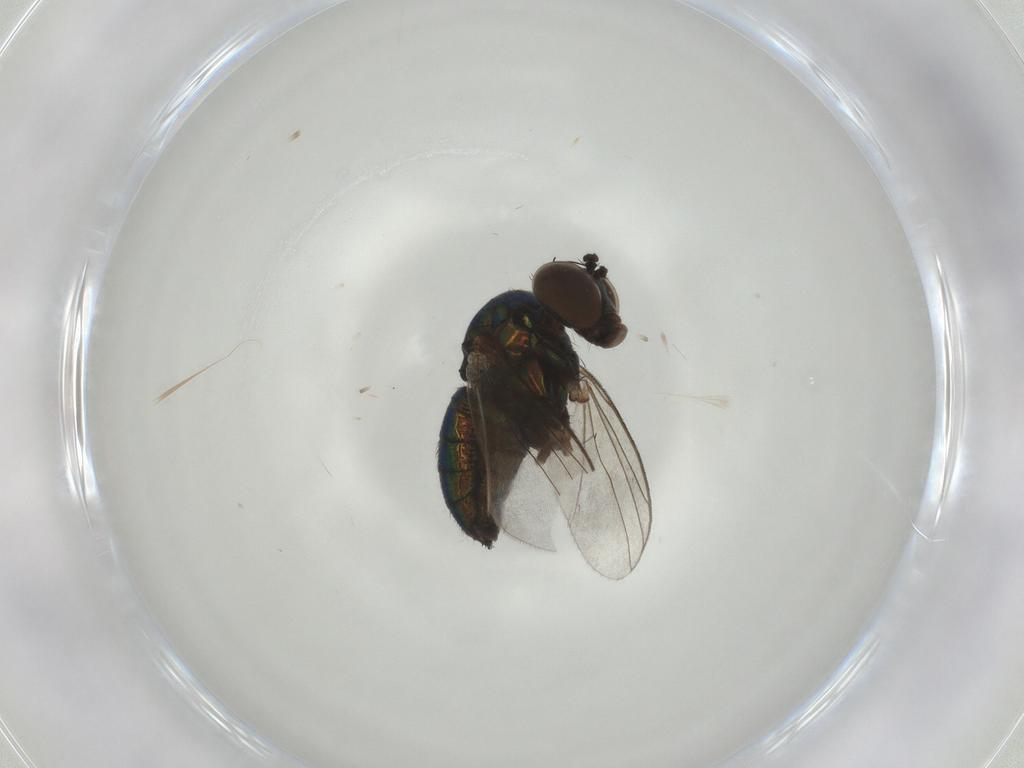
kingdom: Animalia
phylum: Arthropoda
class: Insecta
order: Diptera
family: Dolichopodidae
